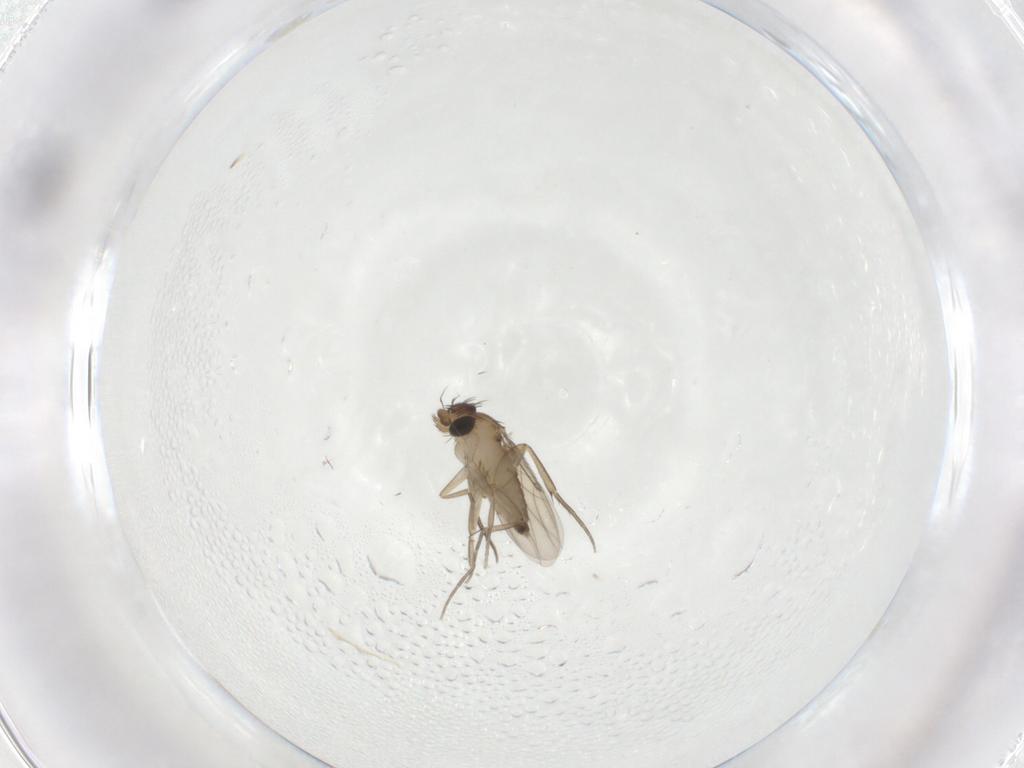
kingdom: Animalia
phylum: Arthropoda
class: Insecta
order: Diptera
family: Phoridae
